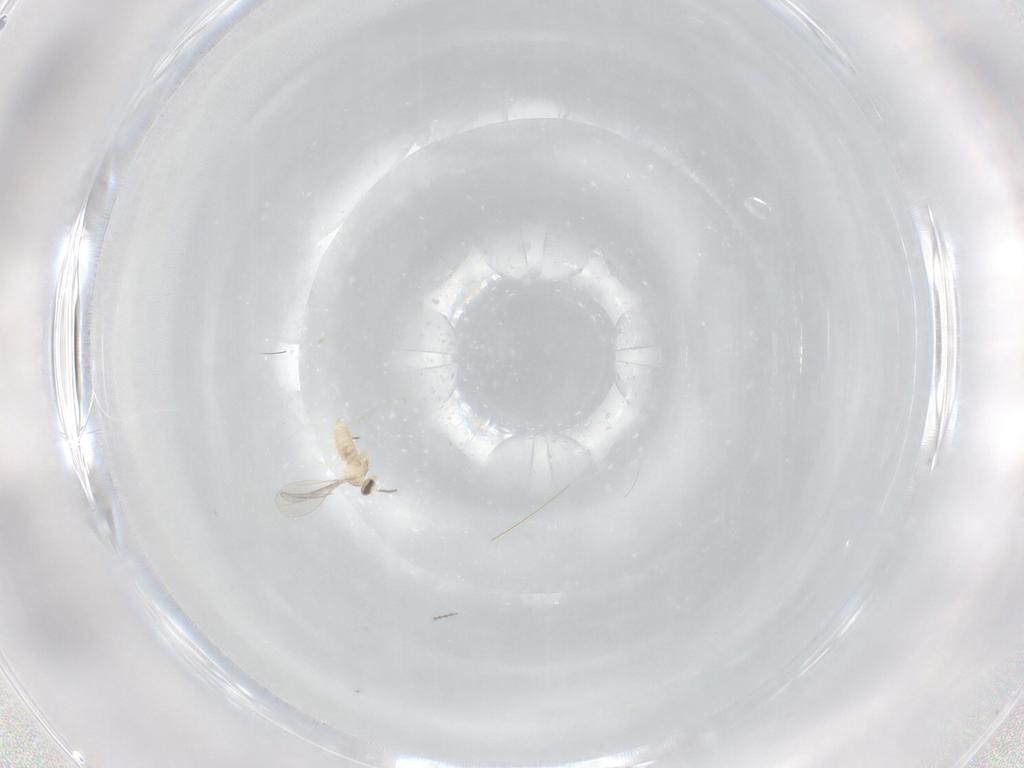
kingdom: Animalia
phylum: Arthropoda
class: Insecta
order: Diptera
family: Cecidomyiidae
